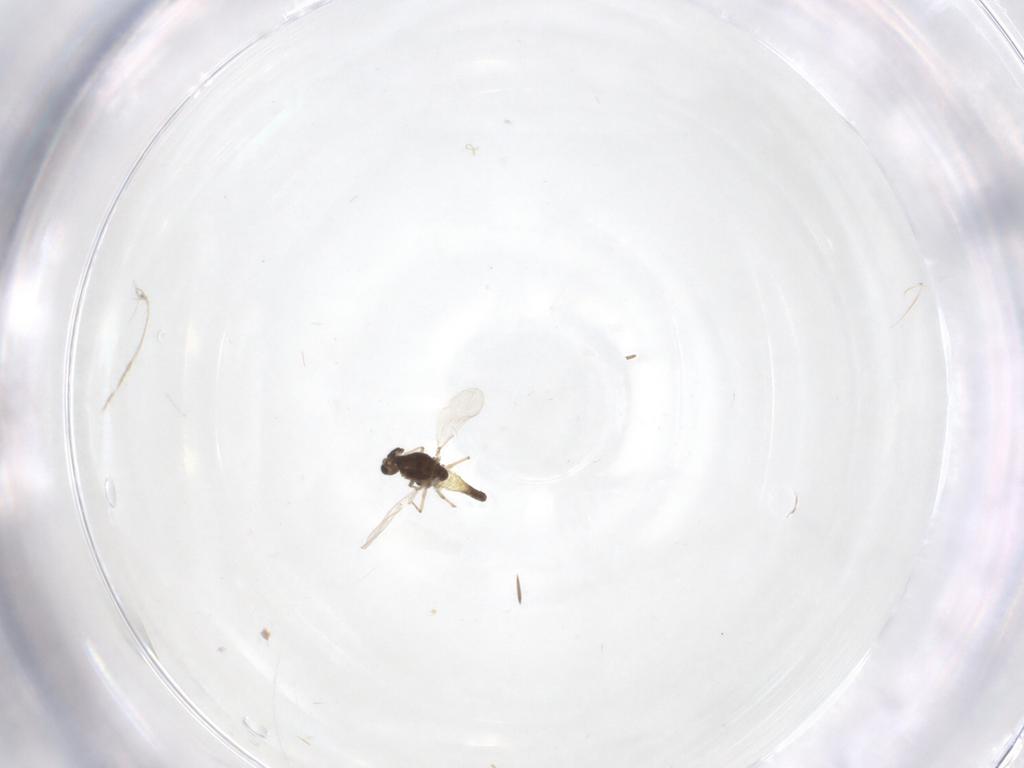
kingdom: Animalia
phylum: Arthropoda
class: Insecta
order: Diptera
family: Chironomidae
